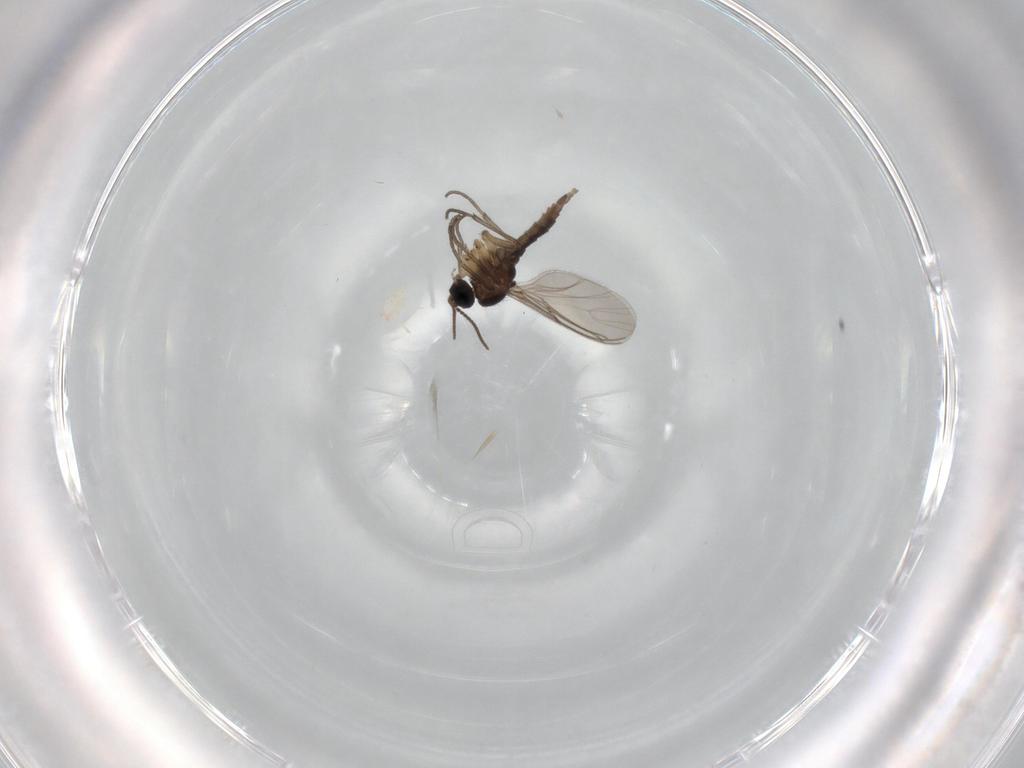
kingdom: Animalia
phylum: Arthropoda
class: Insecta
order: Diptera
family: Sciaridae
